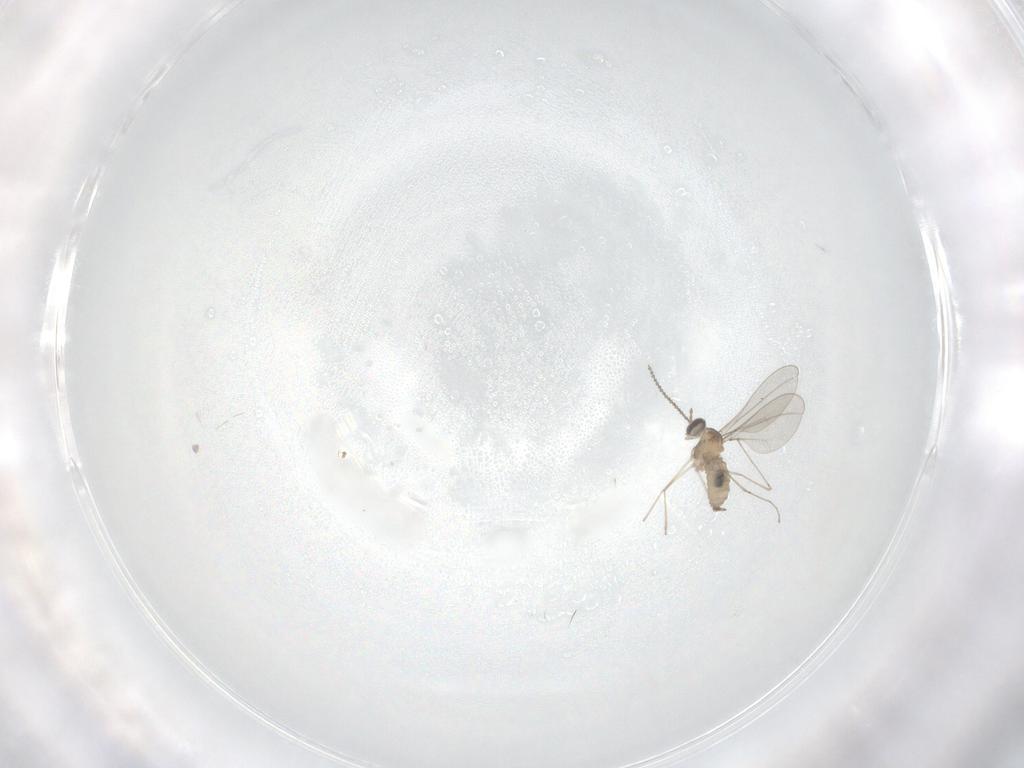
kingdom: Animalia
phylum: Arthropoda
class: Insecta
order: Diptera
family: Cecidomyiidae
